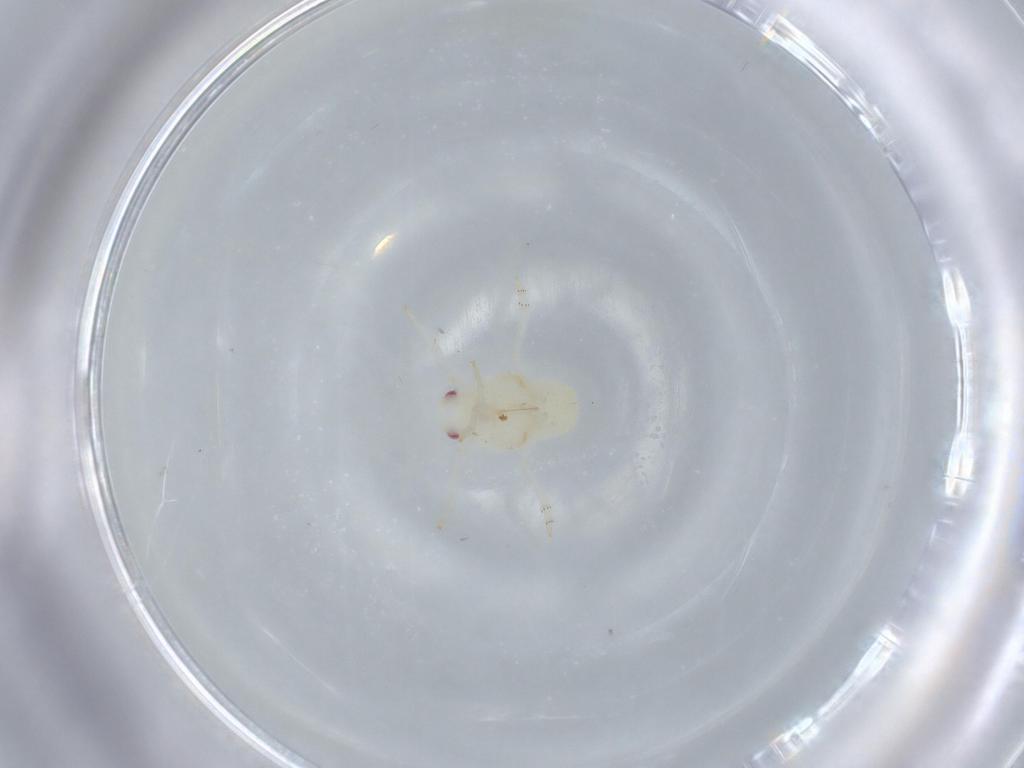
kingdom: Animalia
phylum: Arthropoda
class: Insecta
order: Hemiptera
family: Flatidae
